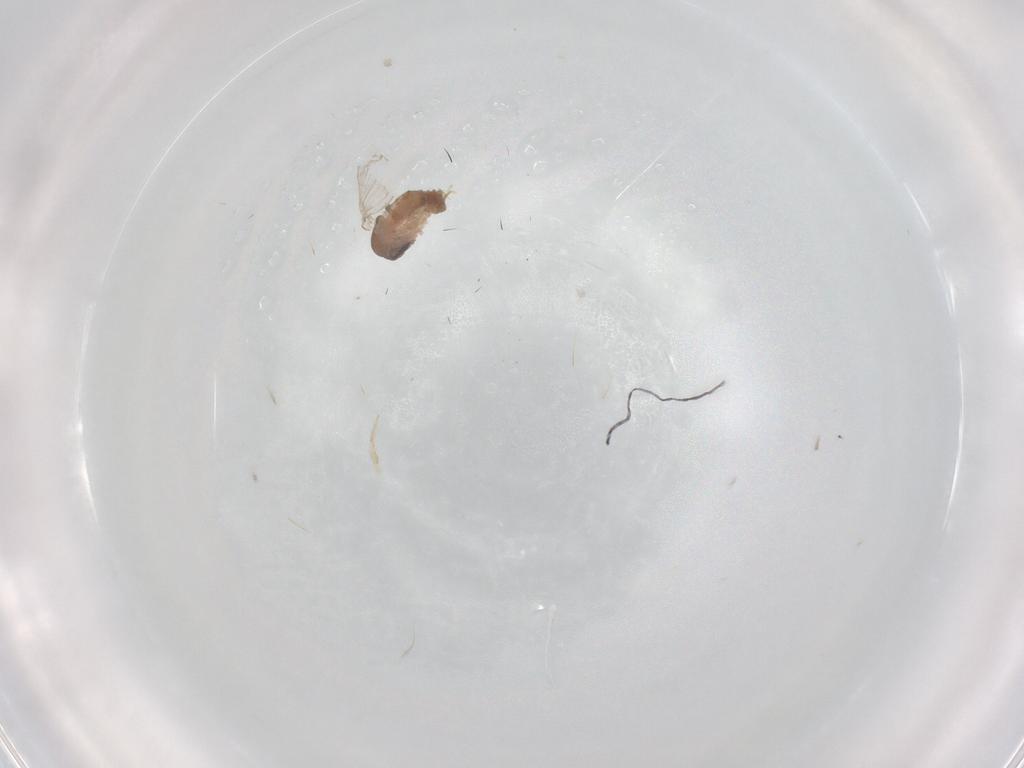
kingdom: Animalia
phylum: Arthropoda
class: Insecta
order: Diptera
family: Psychodidae
